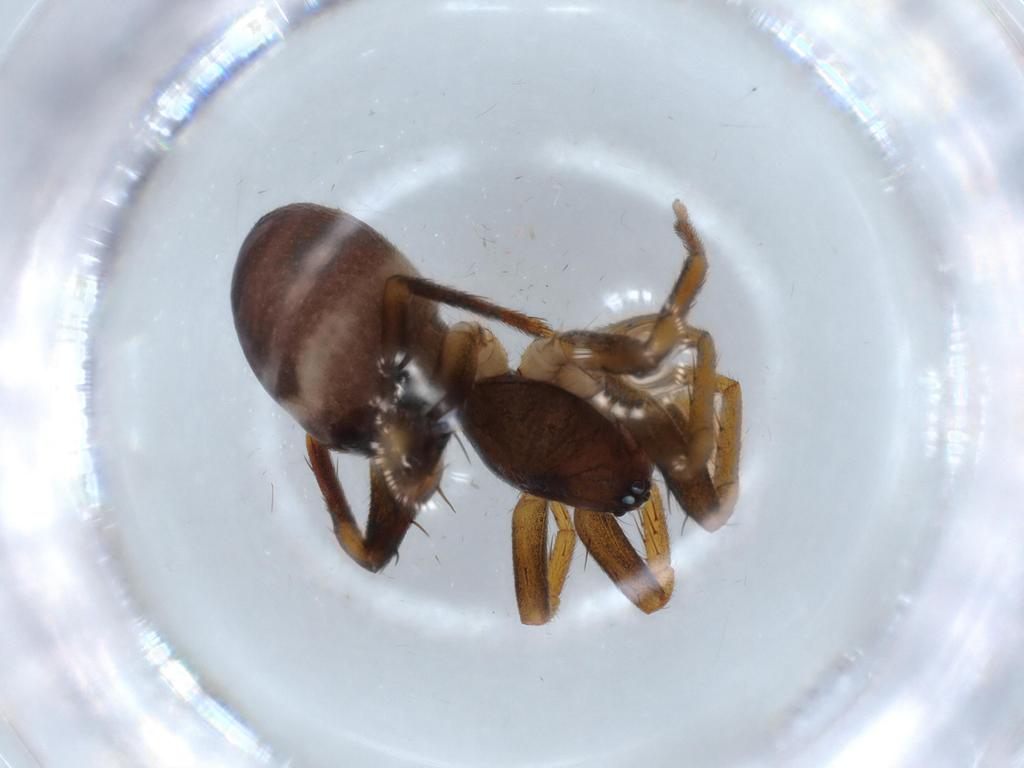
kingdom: Animalia
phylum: Arthropoda
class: Arachnida
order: Araneae
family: Corinnidae
